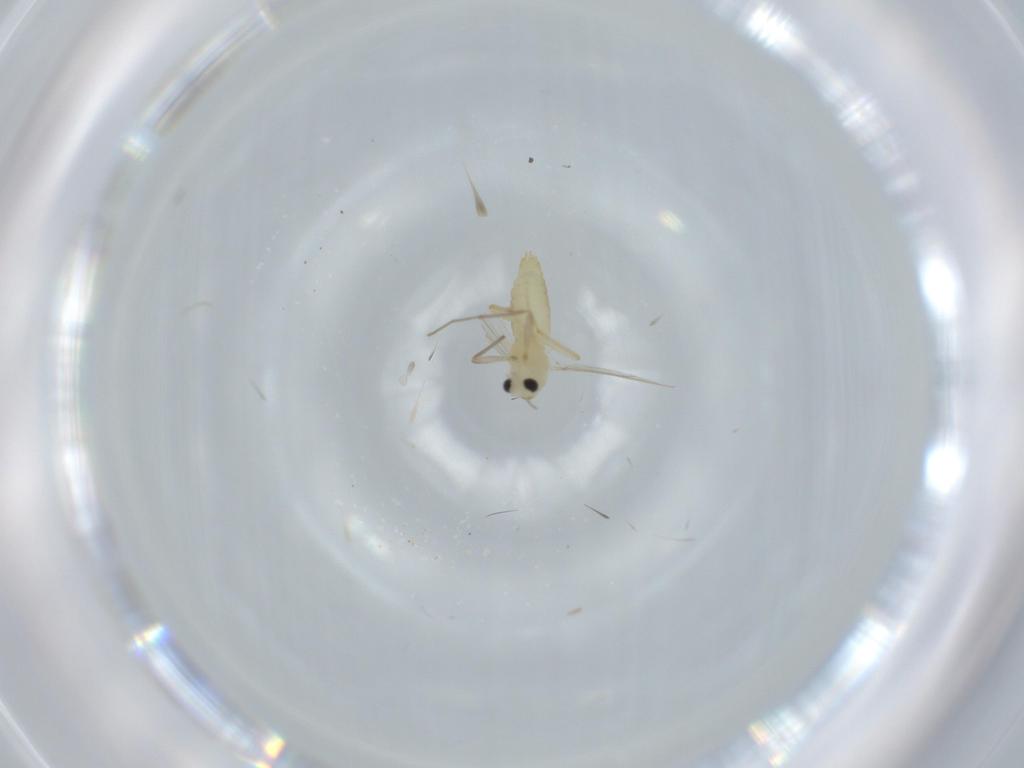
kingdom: Animalia
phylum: Arthropoda
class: Insecta
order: Diptera
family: Chironomidae
